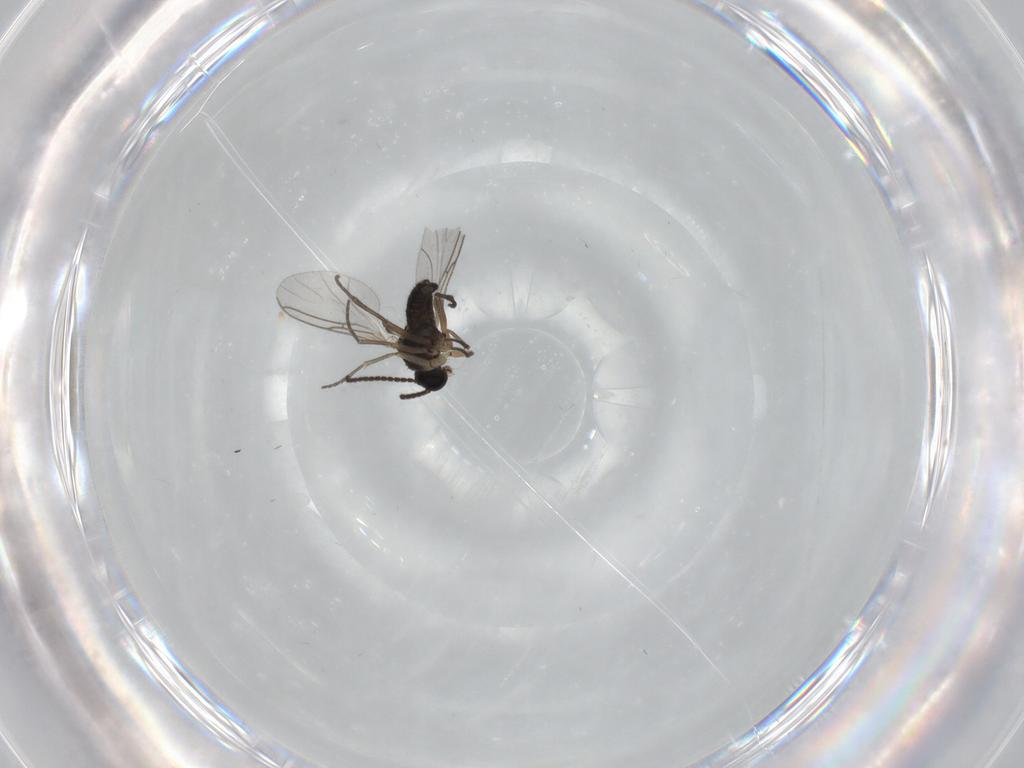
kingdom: Animalia
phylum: Arthropoda
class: Insecta
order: Diptera
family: Sciaridae
